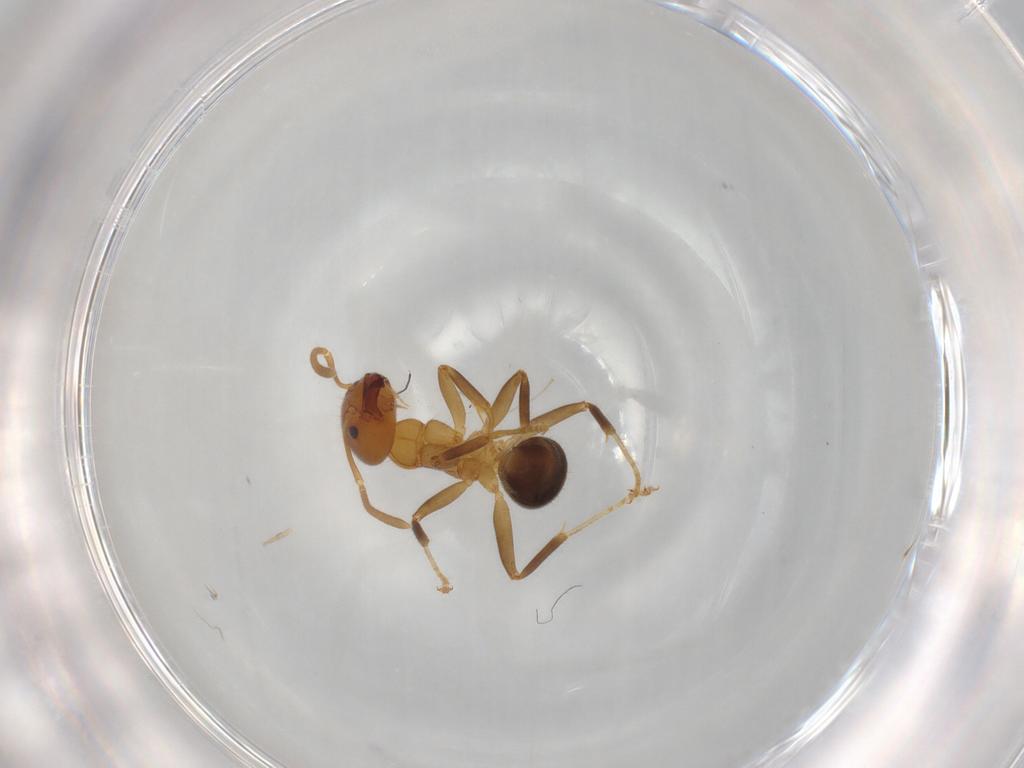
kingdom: Animalia
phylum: Arthropoda
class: Insecta
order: Hymenoptera
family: Formicidae
